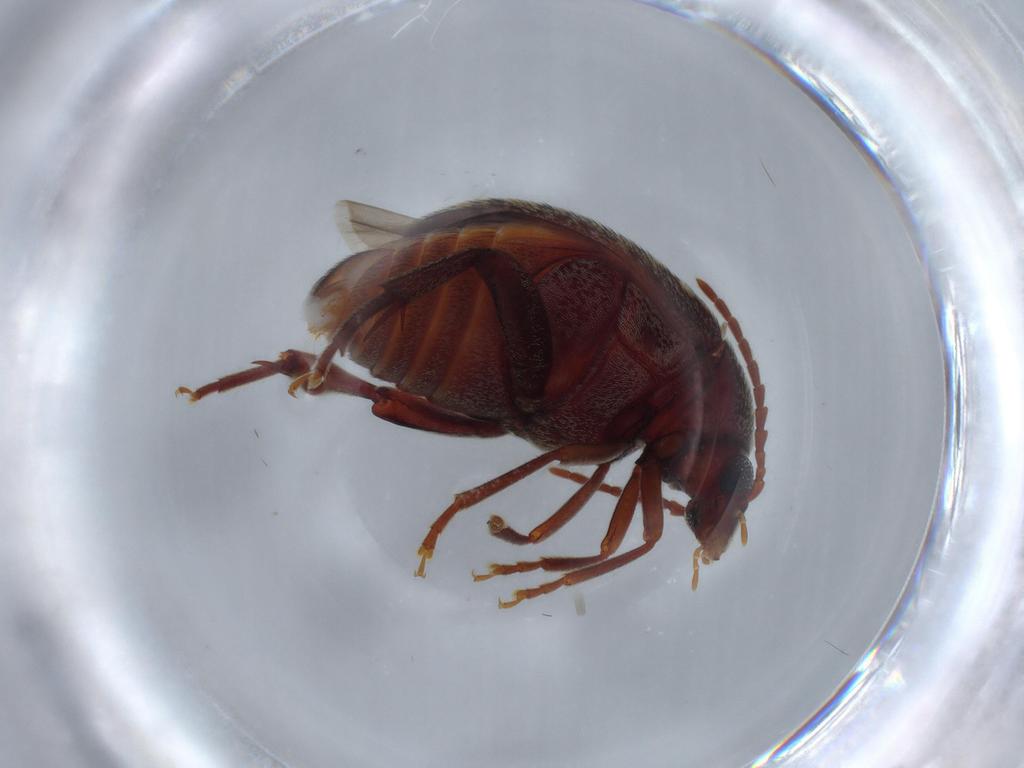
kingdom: Animalia
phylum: Arthropoda
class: Insecta
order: Coleoptera
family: Chrysomelidae
